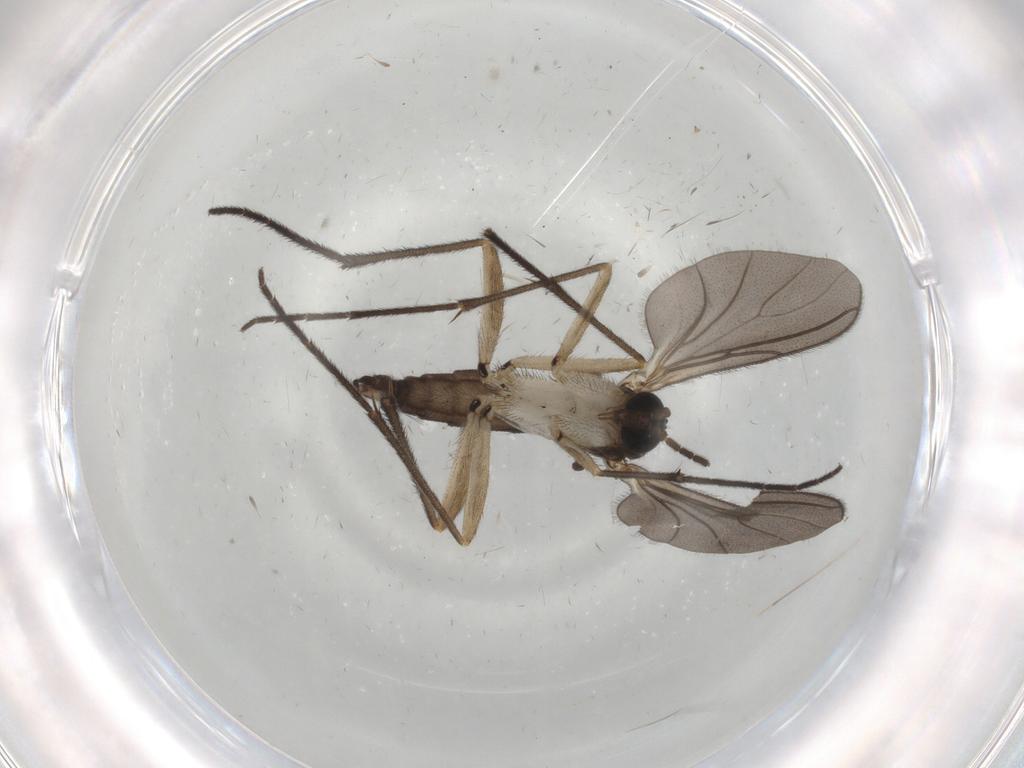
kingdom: Animalia
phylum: Arthropoda
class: Insecta
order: Diptera
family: Sciaridae
